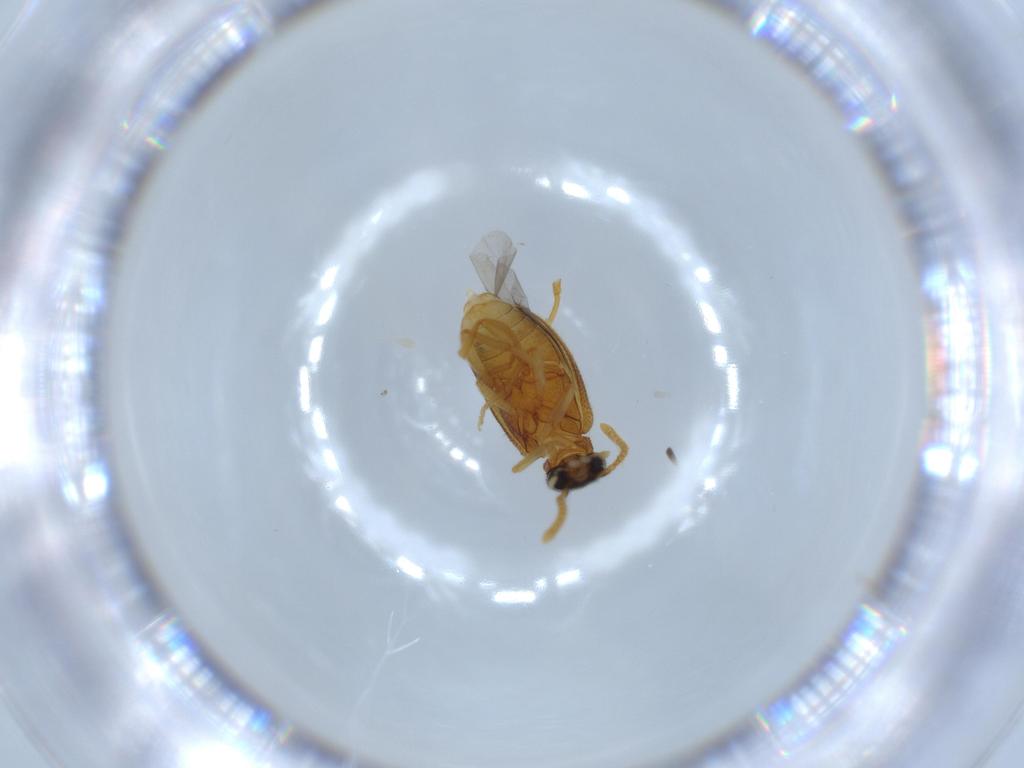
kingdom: Animalia
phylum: Arthropoda
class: Insecta
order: Coleoptera
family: Aderidae
